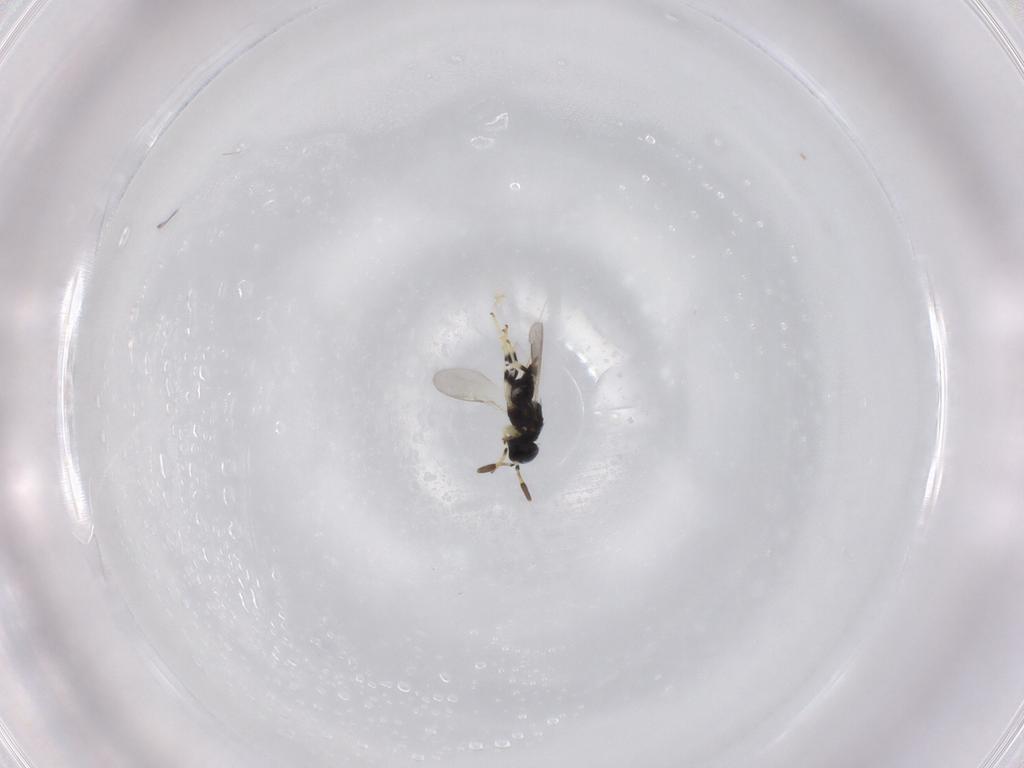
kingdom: Animalia
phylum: Arthropoda
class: Insecta
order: Hymenoptera
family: Encyrtidae
